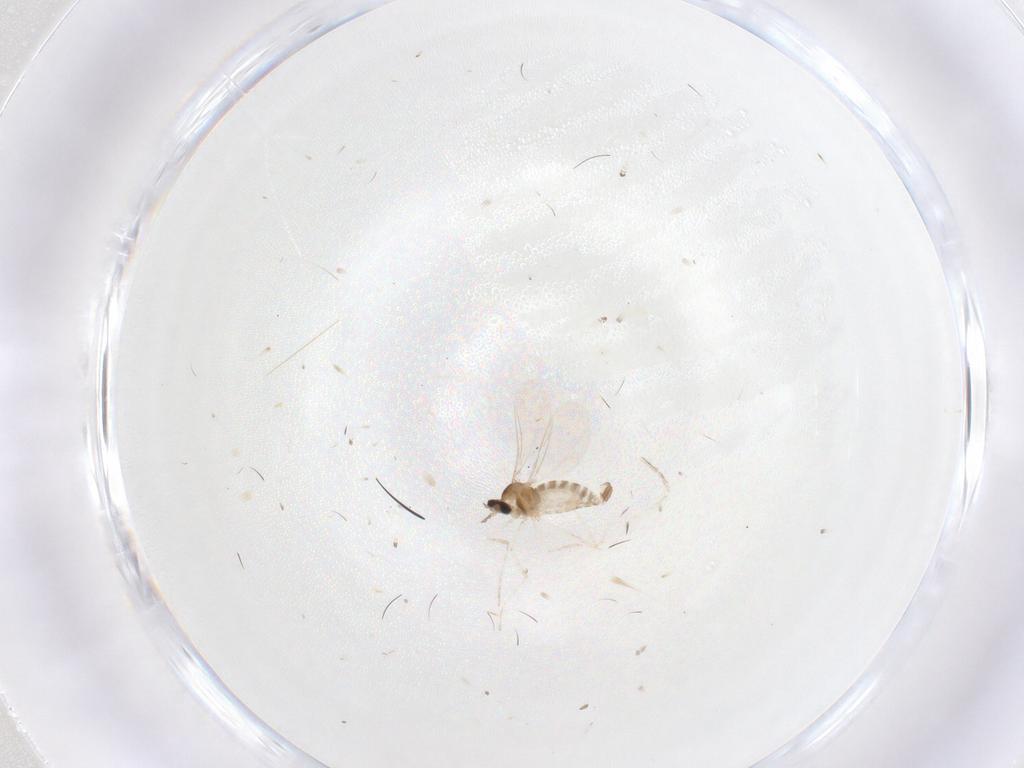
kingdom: Animalia
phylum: Arthropoda
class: Insecta
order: Diptera
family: Cecidomyiidae
